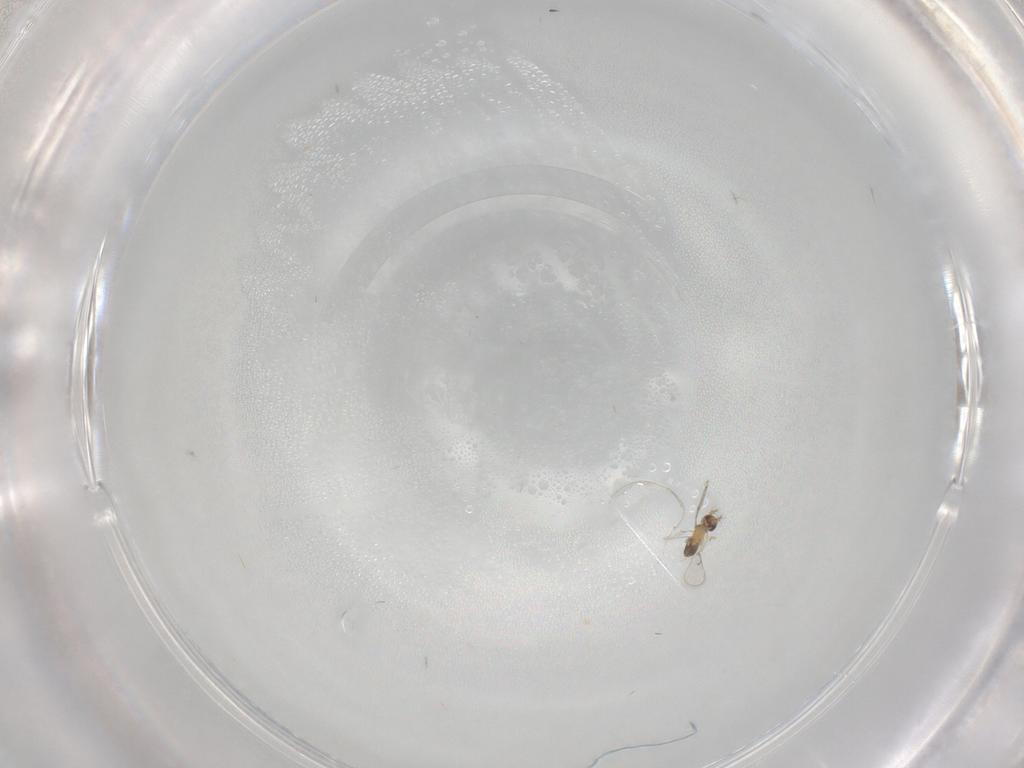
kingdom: Animalia
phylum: Arthropoda
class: Insecta
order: Hymenoptera
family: Trichogrammatidae
